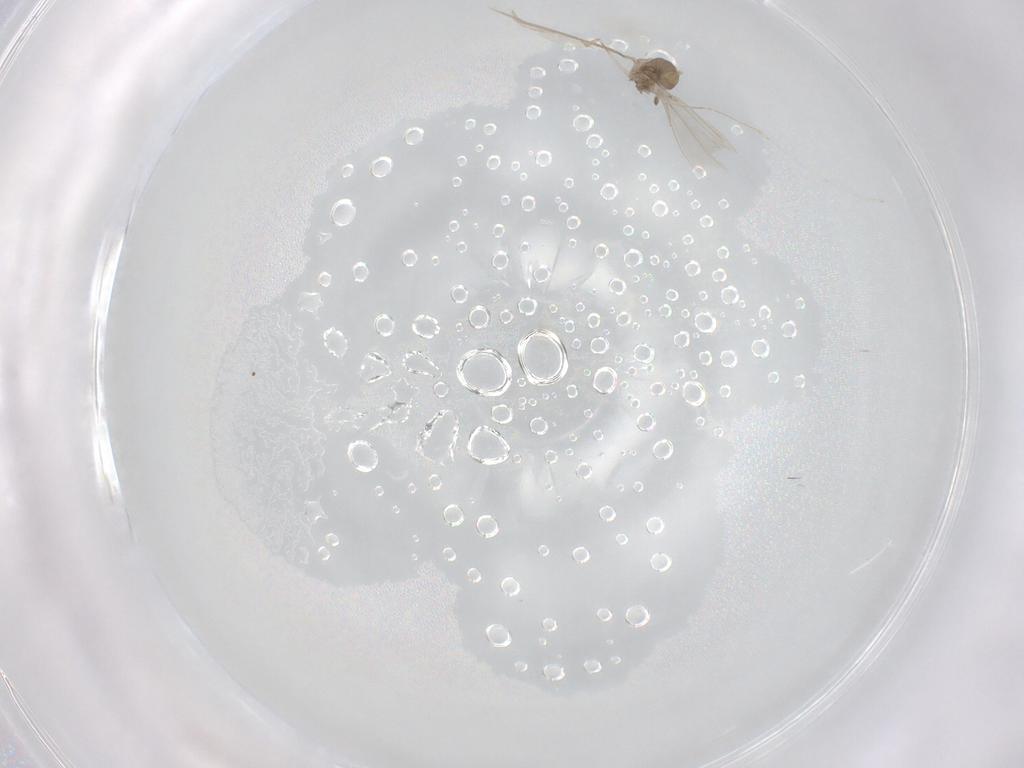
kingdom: Animalia
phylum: Arthropoda
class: Insecta
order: Diptera
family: Cecidomyiidae
